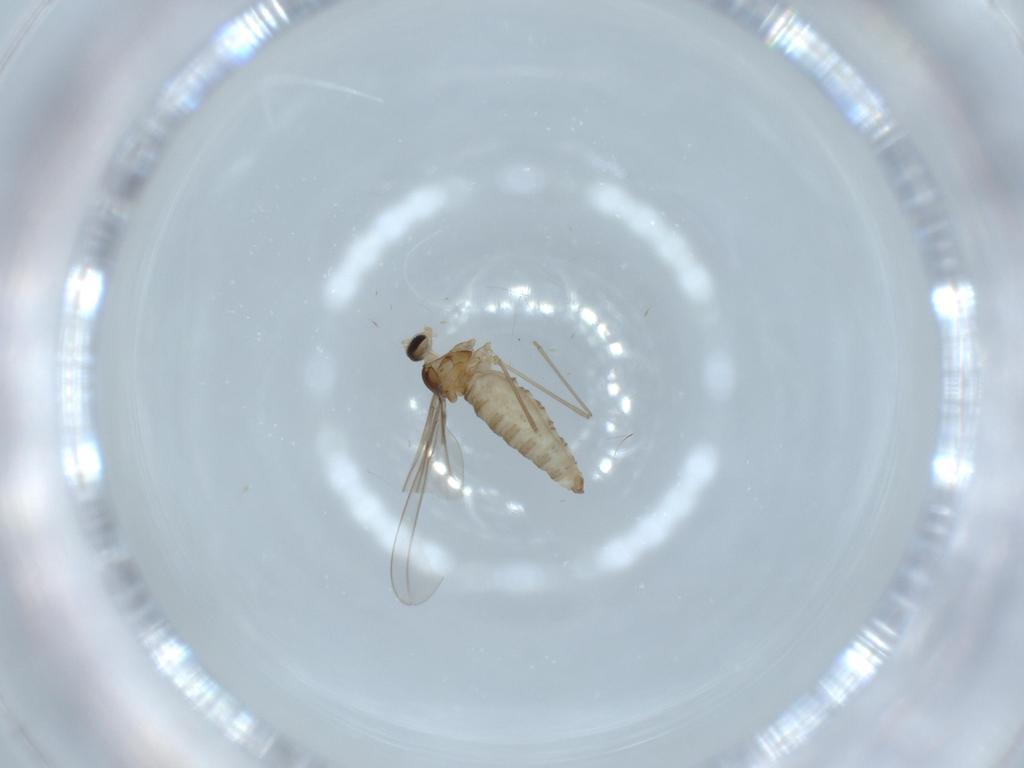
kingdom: Animalia
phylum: Arthropoda
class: Insecta
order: Diptera
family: Cecidomyiidae
